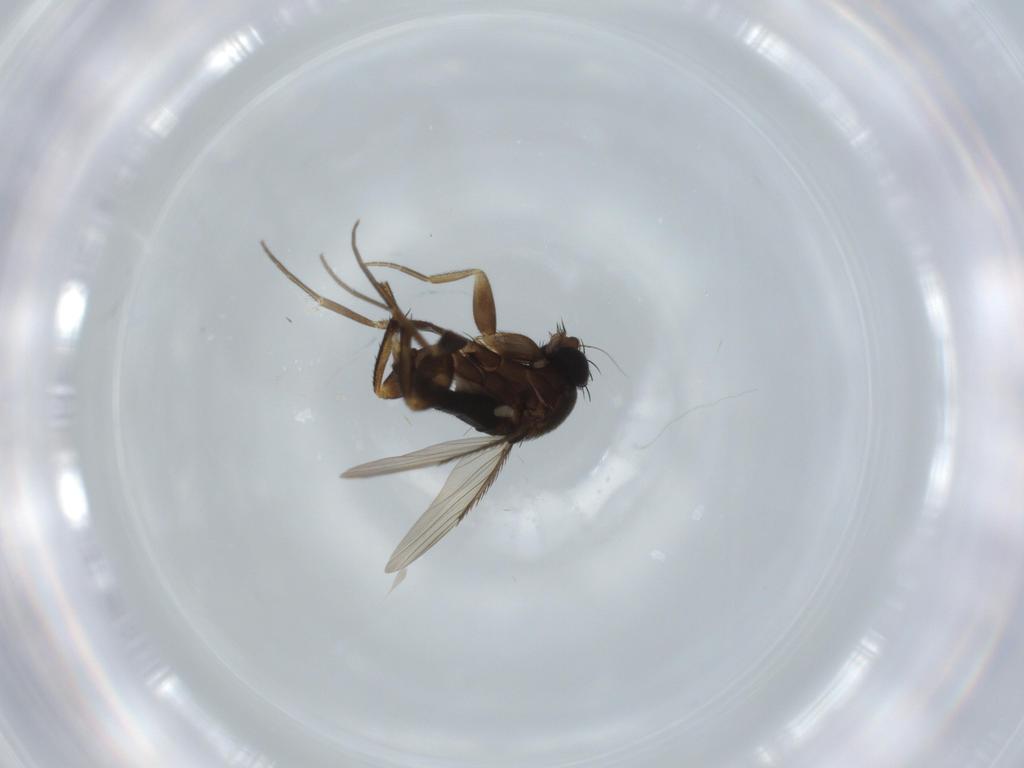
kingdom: Animalia
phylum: Arthropoda
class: Insecta
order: Diptera
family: Phoridae
